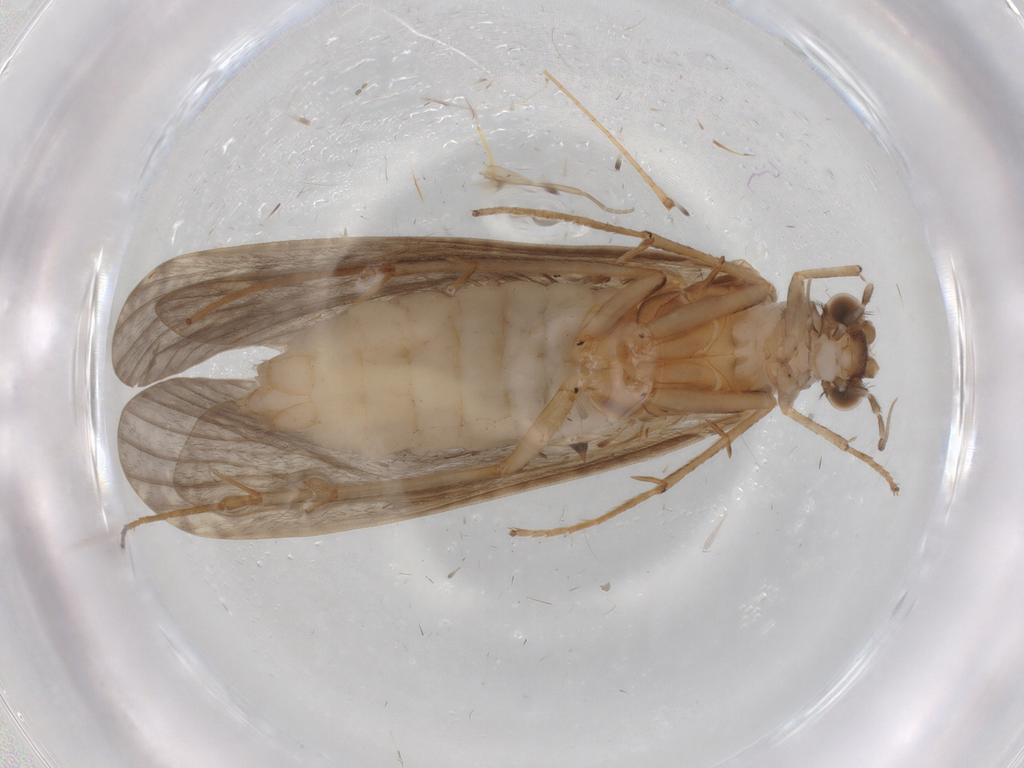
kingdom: Animalia
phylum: Arthropoda
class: Insecta
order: Trichoptera
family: Hydropsychidae
